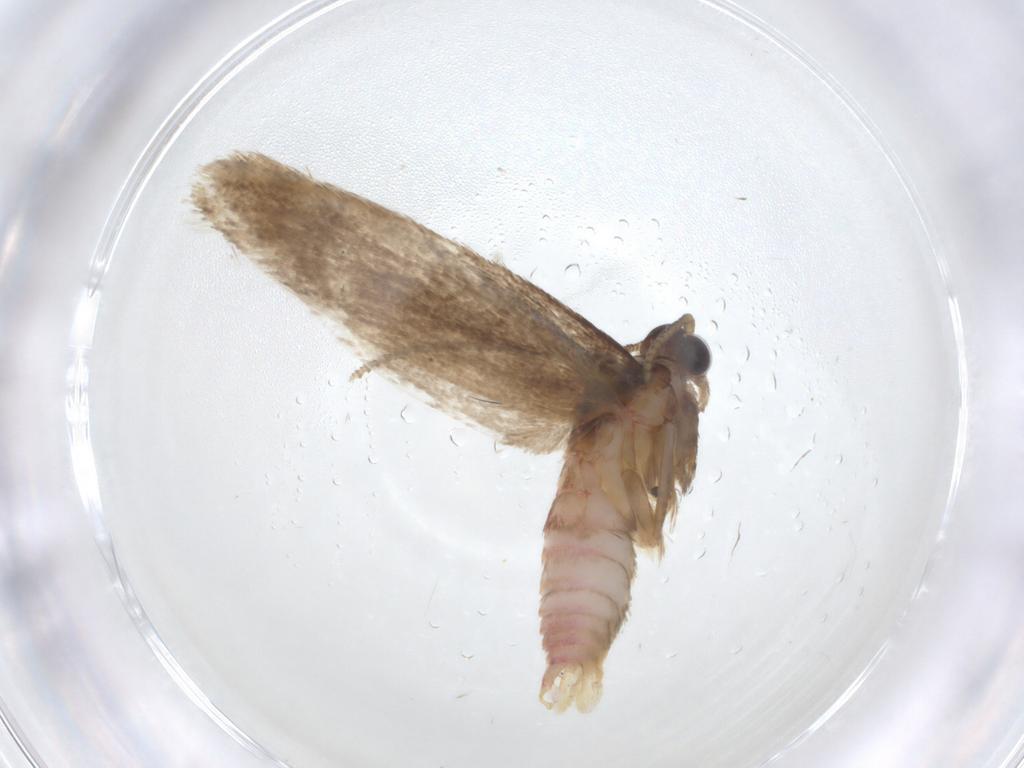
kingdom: Animalia
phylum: Arthropoda
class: Insecta
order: Lepidoptera
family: Autostichidae
